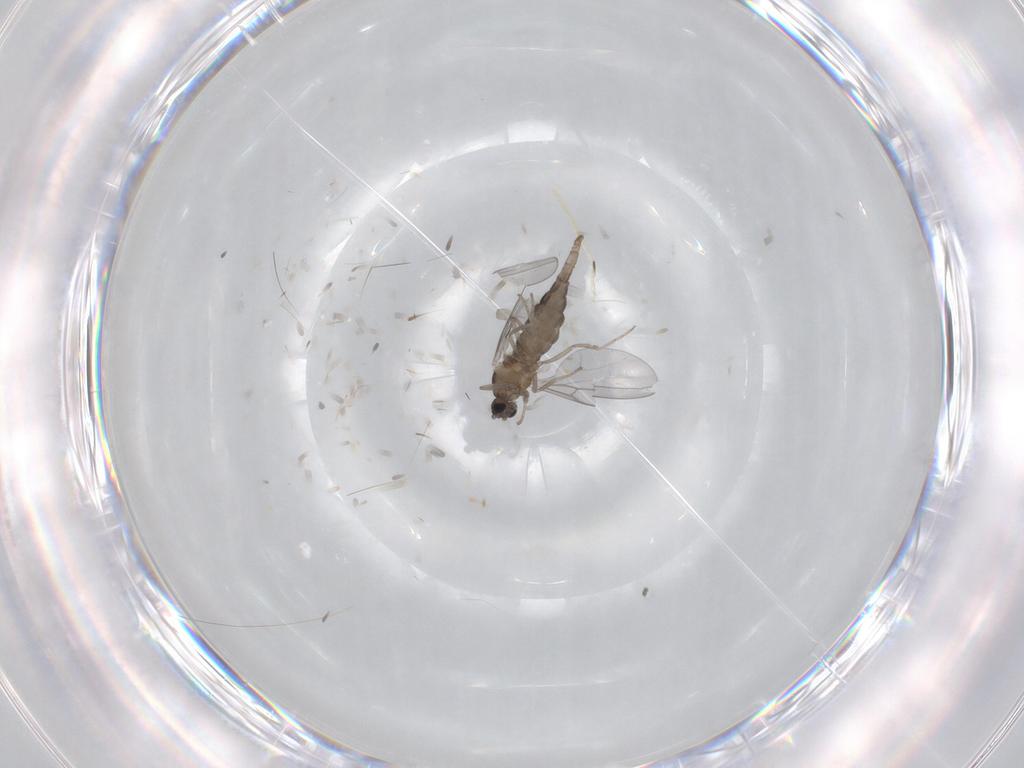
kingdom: Animalia
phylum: Arthropoda
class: Insecta
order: Diptera
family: Cecidomyiidae
